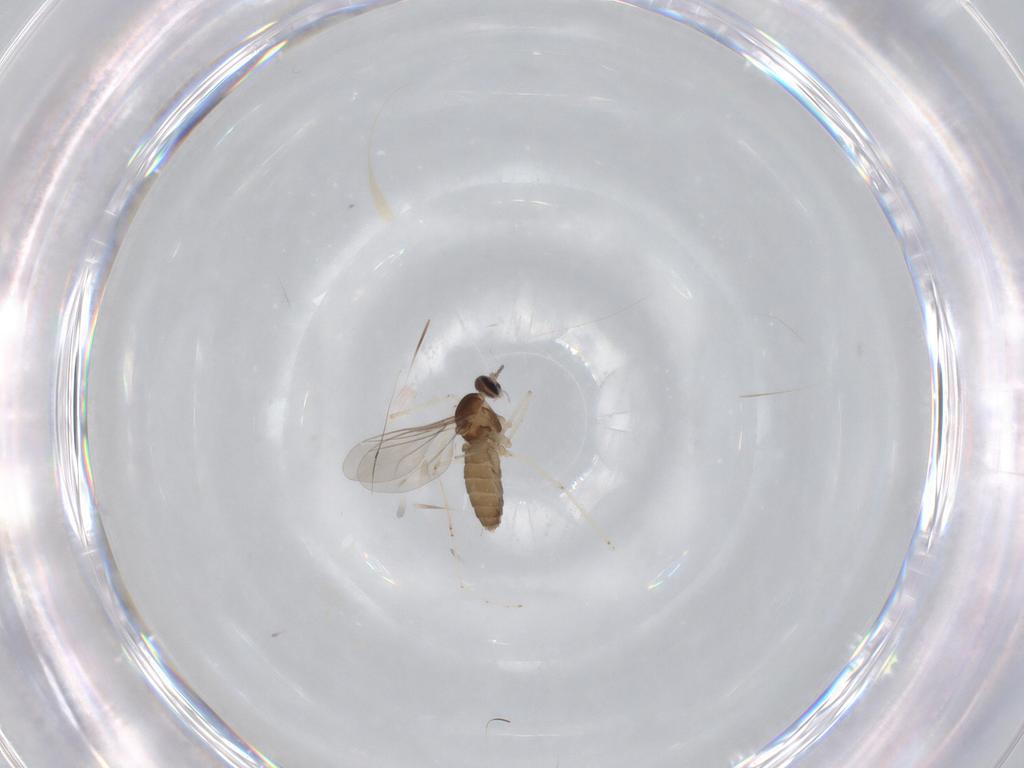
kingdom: Animalia
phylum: Arthropoda
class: Insecta
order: Diptera
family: Cecidomyiidae
